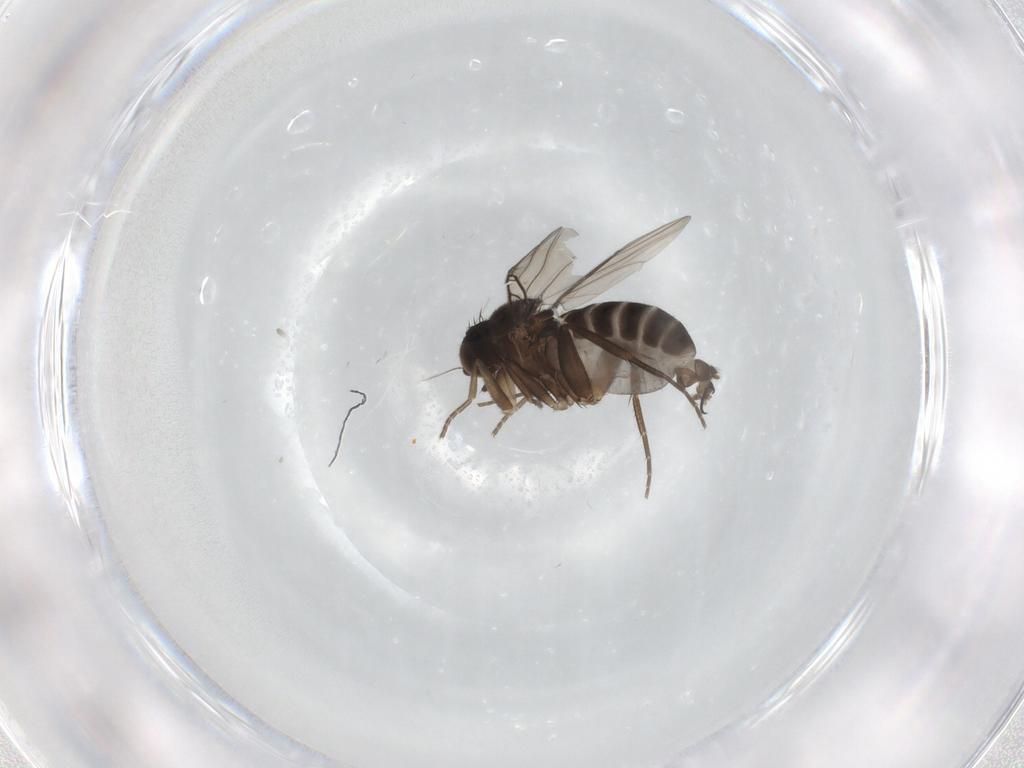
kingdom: Animalia
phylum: Arthropoda
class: Insecta
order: Diptera
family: Phoridae
